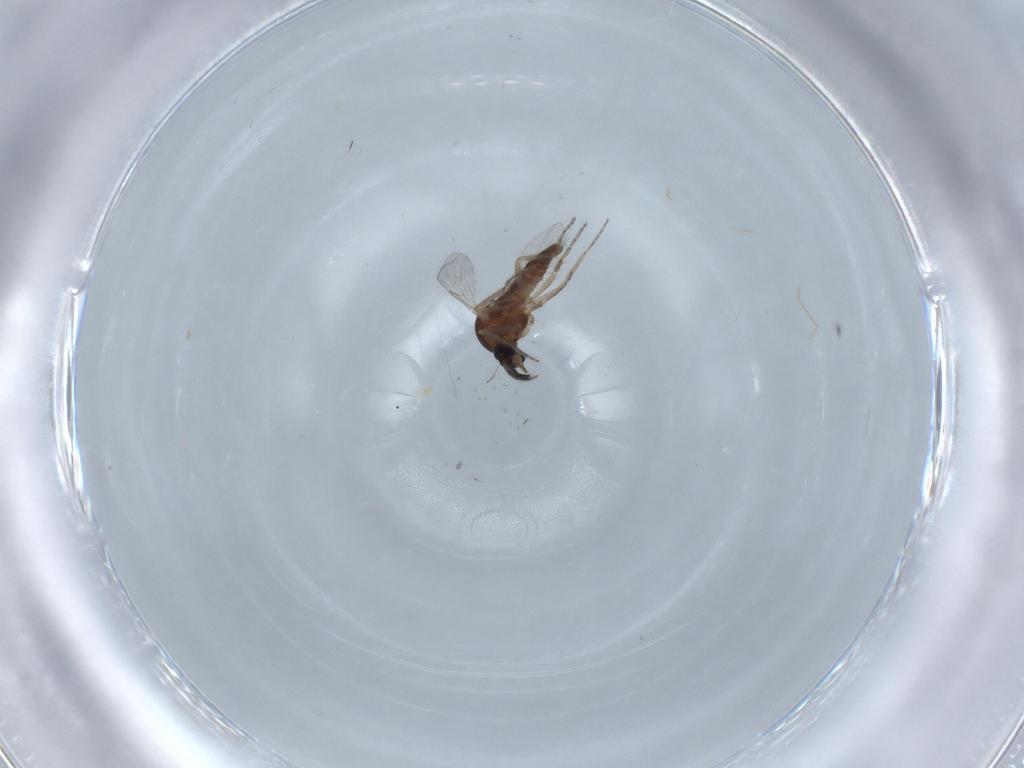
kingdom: Animalia
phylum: Arthropoda
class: Insecta
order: Diptera
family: Ceratopogonidae
